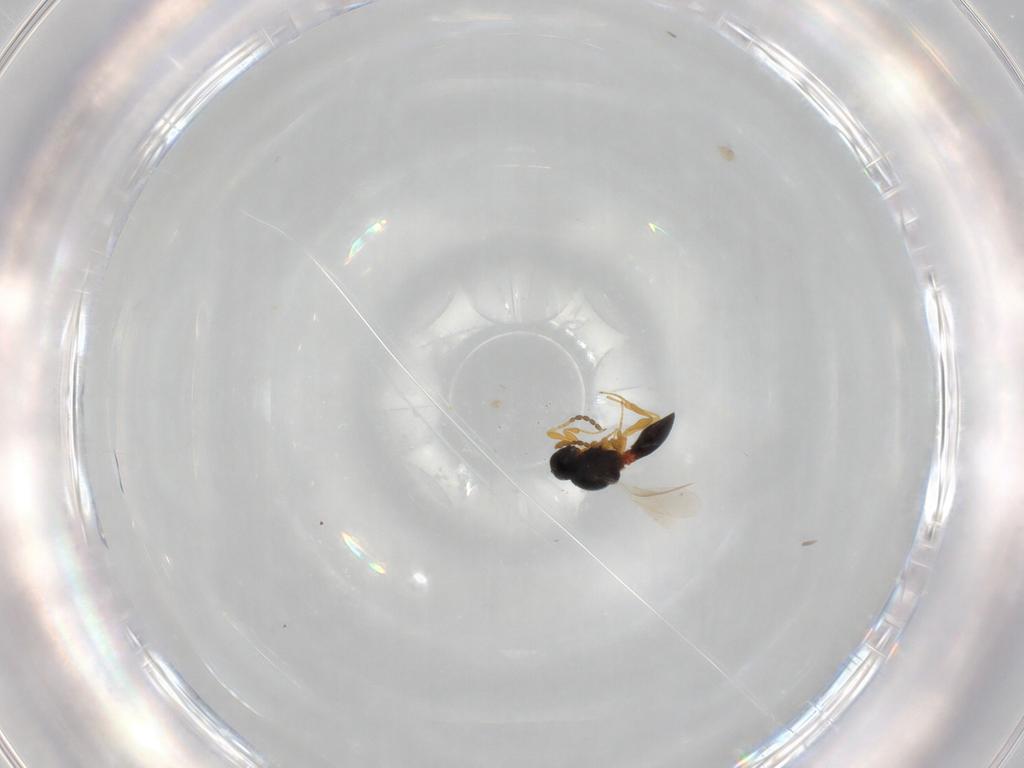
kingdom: Animalia
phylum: Arthropoda
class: Insecta
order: Hymenoptera
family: Platygastridae
